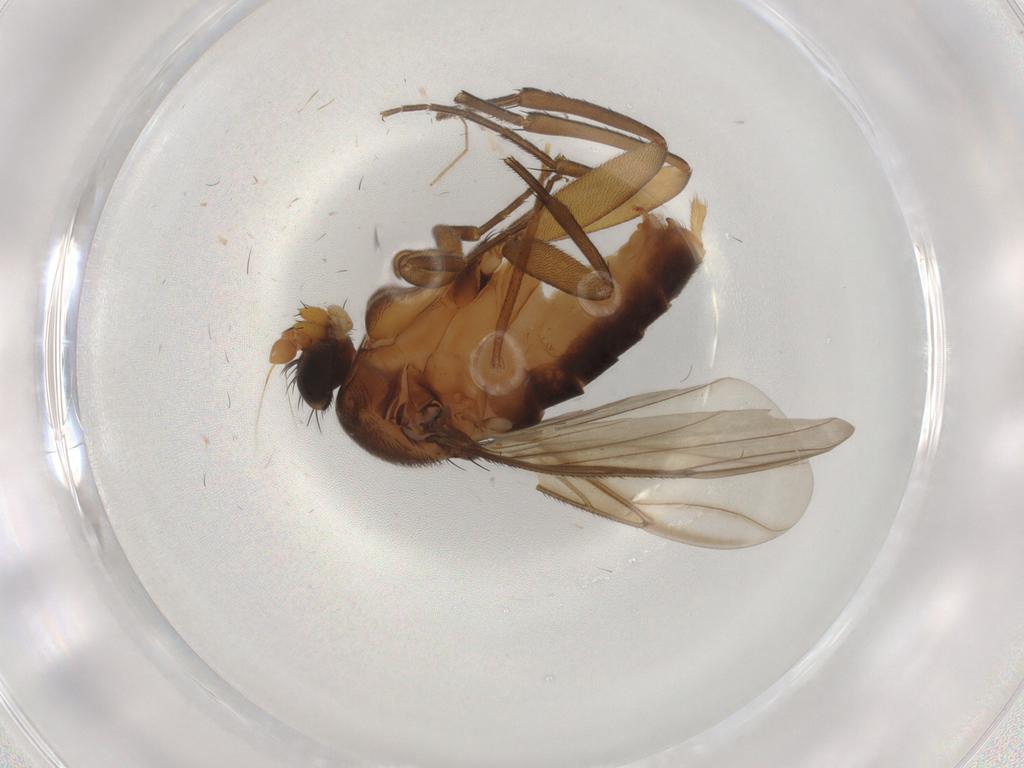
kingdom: Animalia
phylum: Arthropoda
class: Insecta
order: Diptera
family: Phoridae
